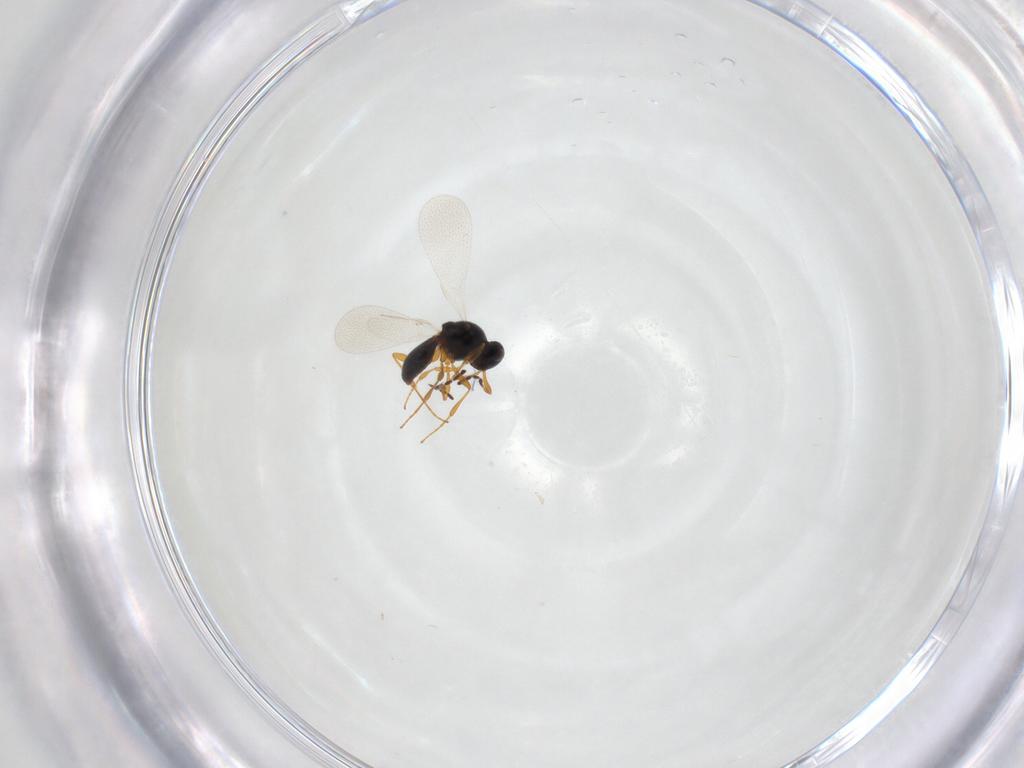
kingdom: Animalia
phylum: Arthropoda
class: Insecta
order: Hymenoptera
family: Platygastridae
